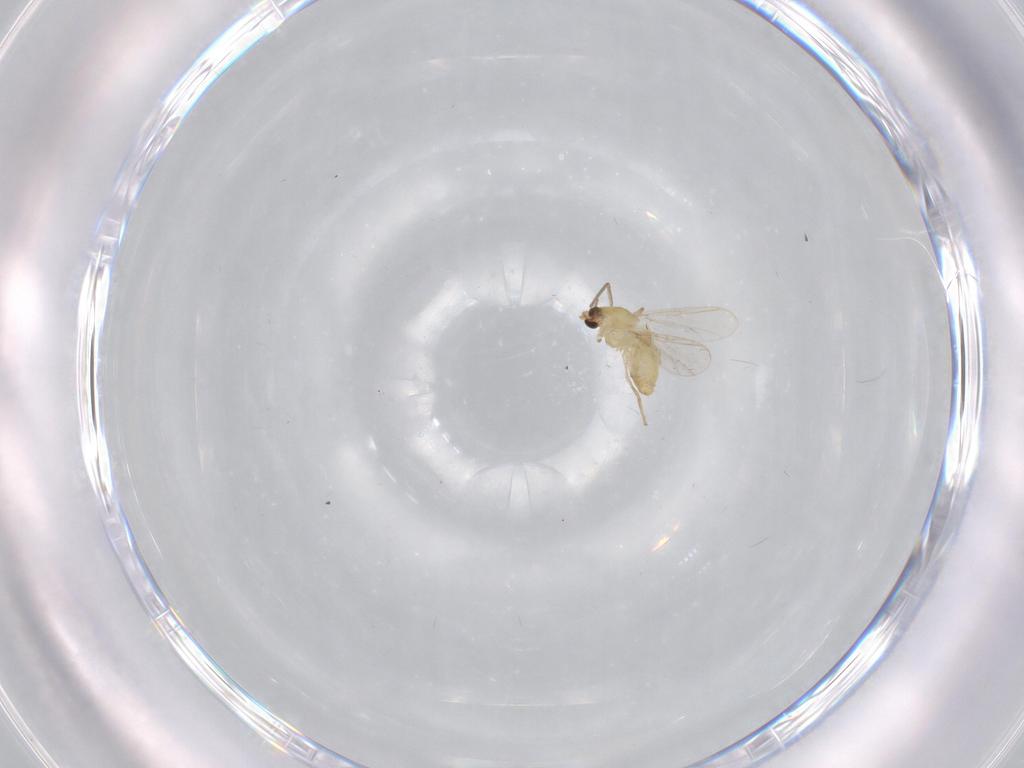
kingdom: Animalia
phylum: Arthropoda
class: Insecta
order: Diptera
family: Chironomidae
